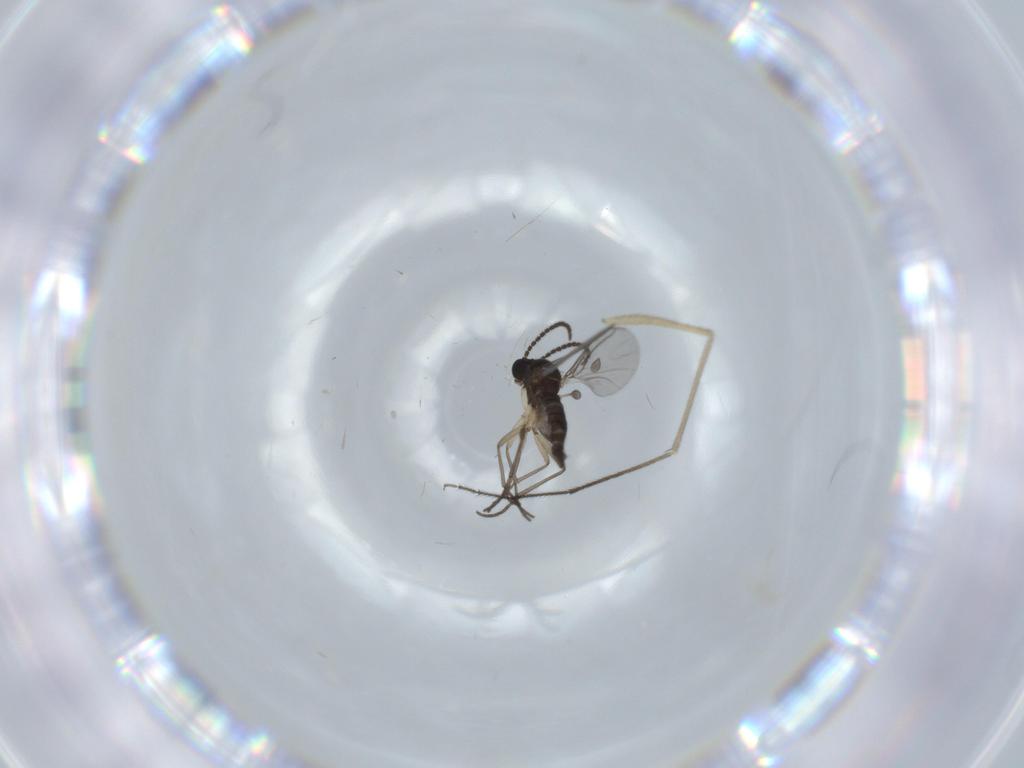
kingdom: Animalia
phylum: Arthropoda
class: Insecta
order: Diptera
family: Sciaridae
